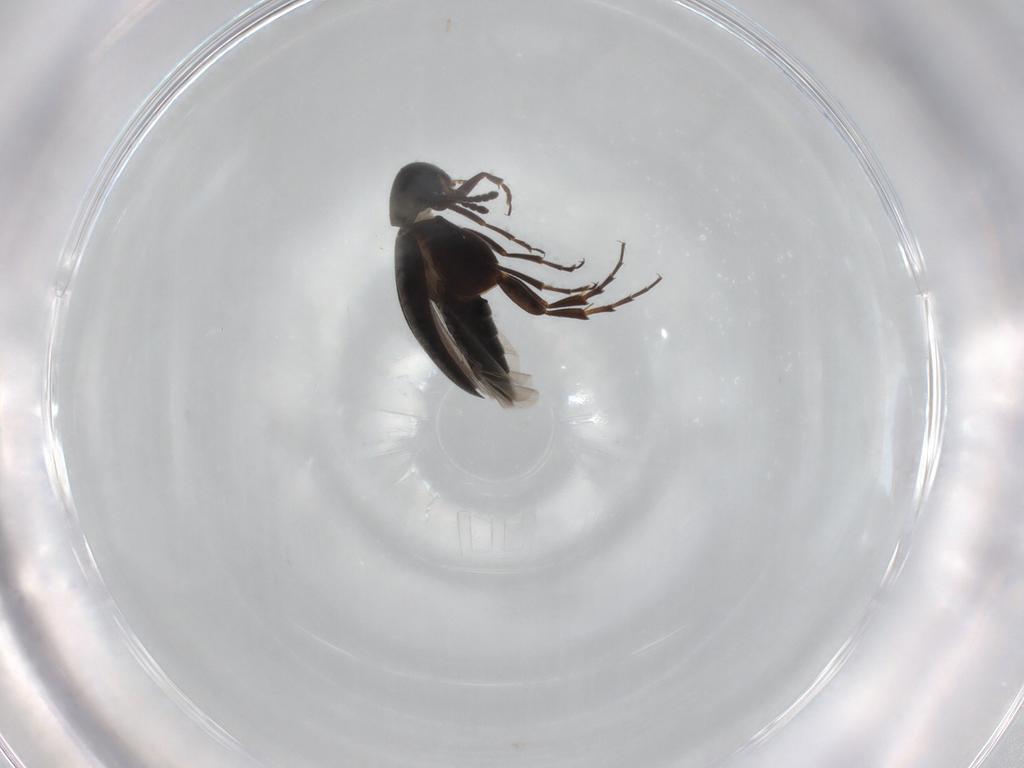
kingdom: Animalia
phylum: Arthropoda
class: Insecta
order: Coleoptera
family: Scraptiidae
